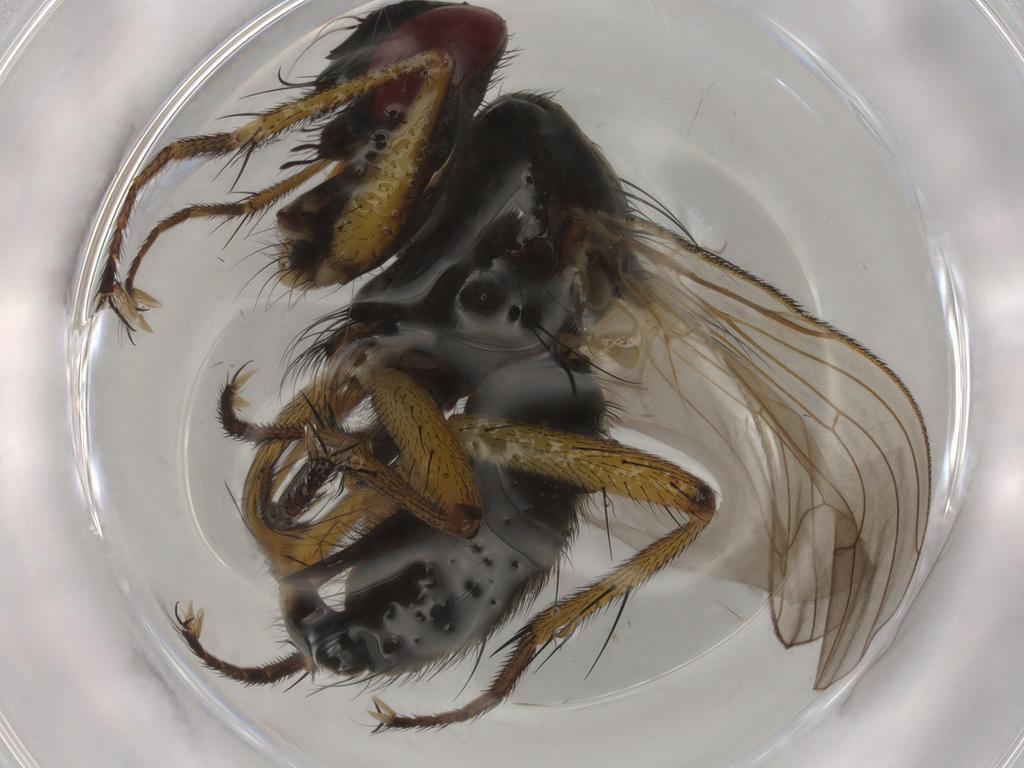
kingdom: Animalia
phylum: Arthropoda
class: Insecta
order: Diptera
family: Chironomidae
